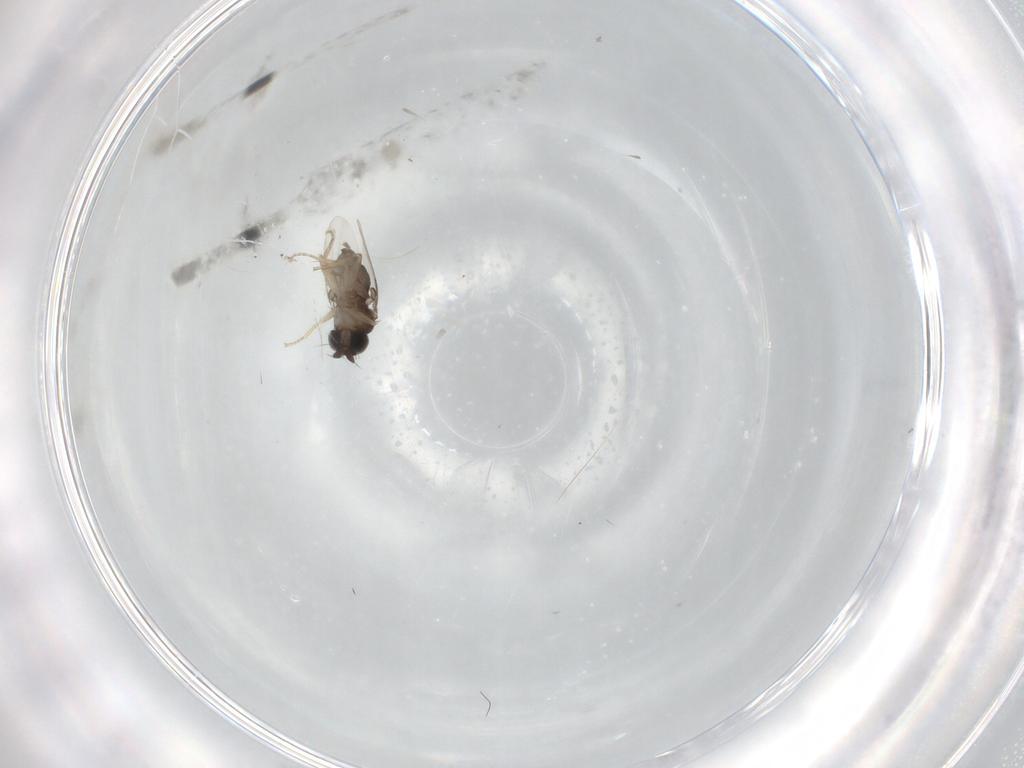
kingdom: Animalia
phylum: Arthropoda
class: Insecta
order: Diptera
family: Phoridae
